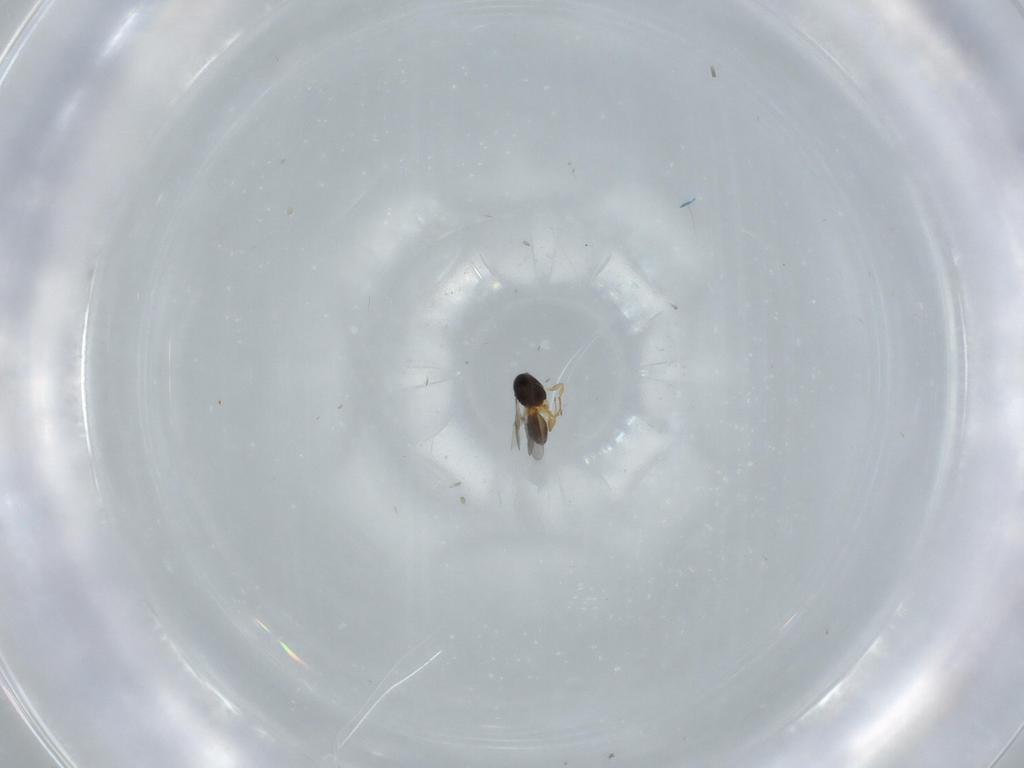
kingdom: Animalia
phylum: Arthropoda
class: Insecta
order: Hymenoptera
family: Scelionidae
